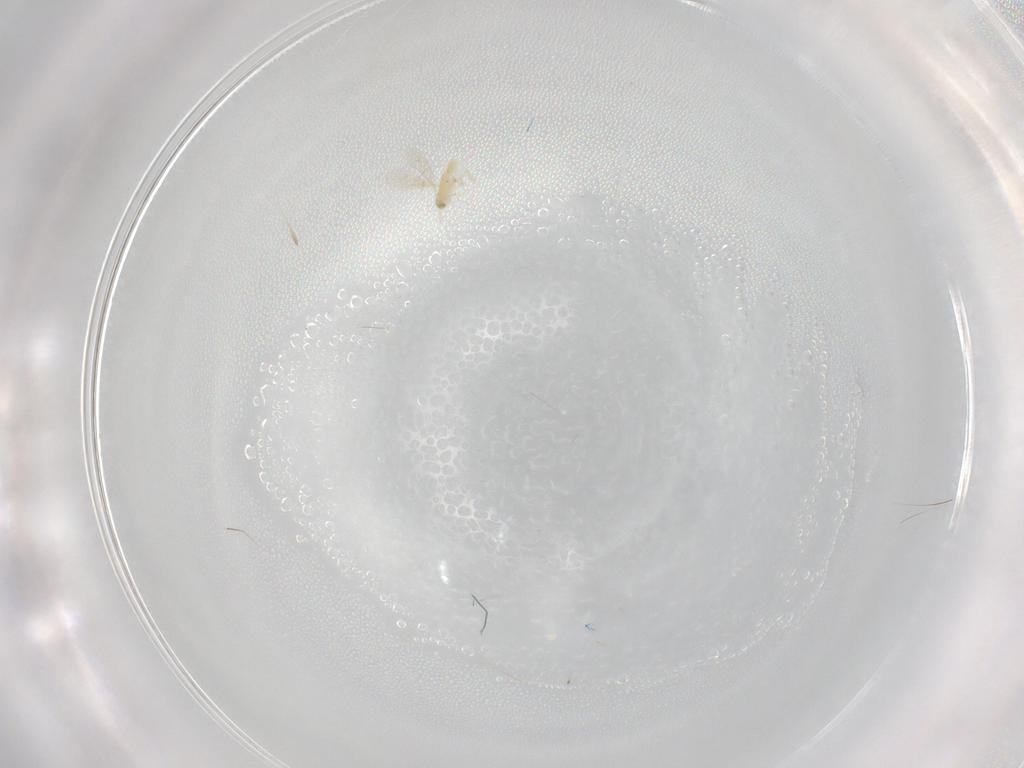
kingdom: Animalia
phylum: Arthropoda
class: Insecta
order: Hymenoptera
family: Aphelinidae
